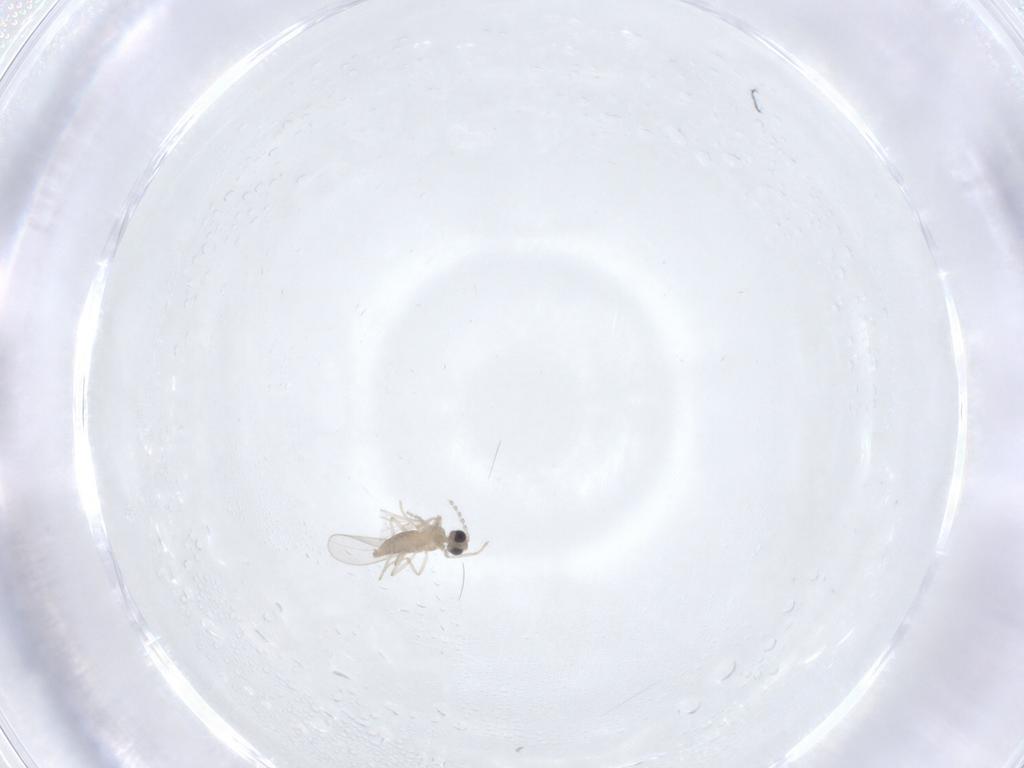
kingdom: Animalia
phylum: Arthropoda
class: Insecta
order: Diptera
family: Cecidomyiidae
